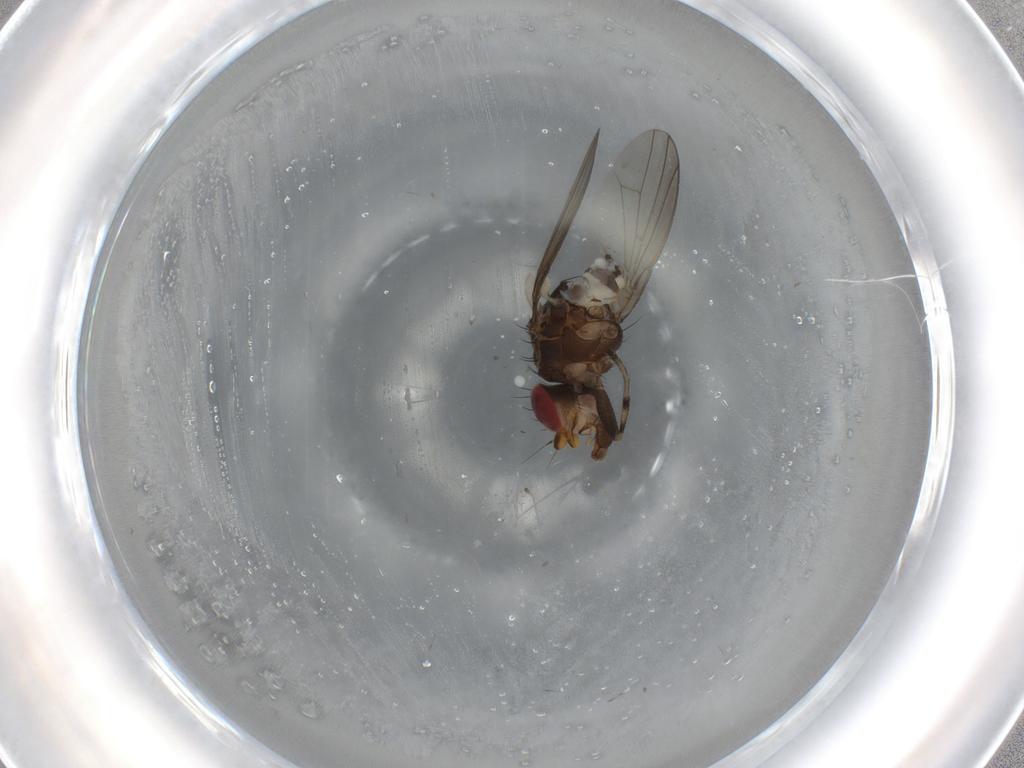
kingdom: Animalia
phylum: Arthropoda
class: Insecta
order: Diptera
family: Heleomyzidae
